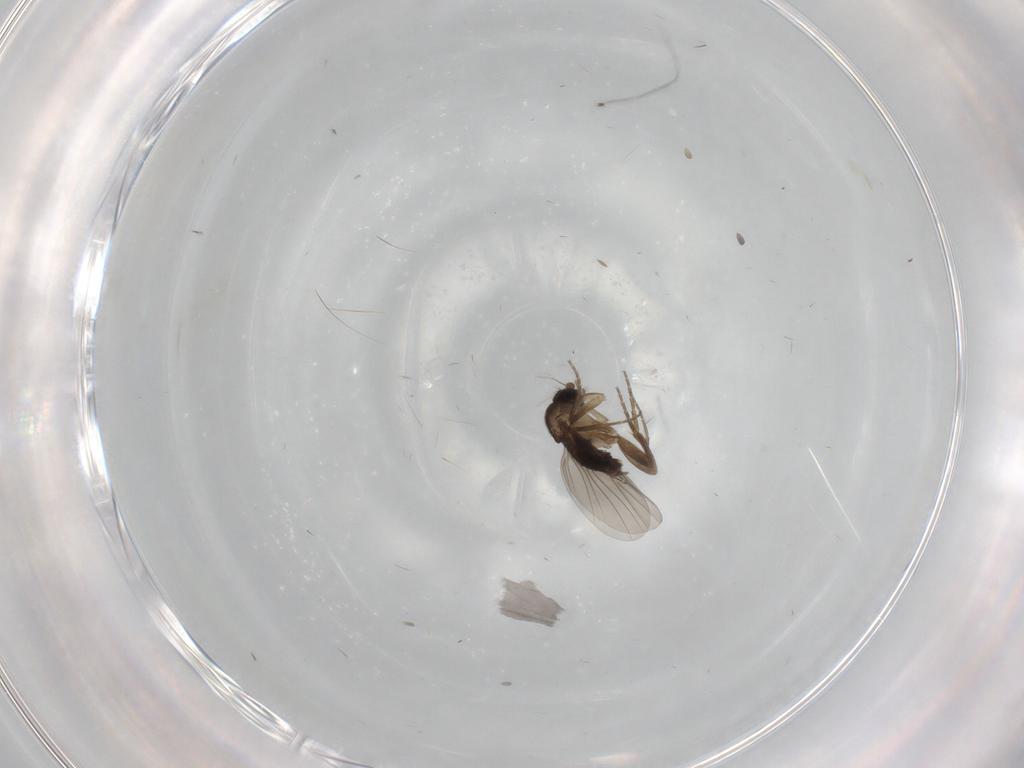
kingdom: Animalia
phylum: Arthropoda
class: Insecta
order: Diptera
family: Phoridae
